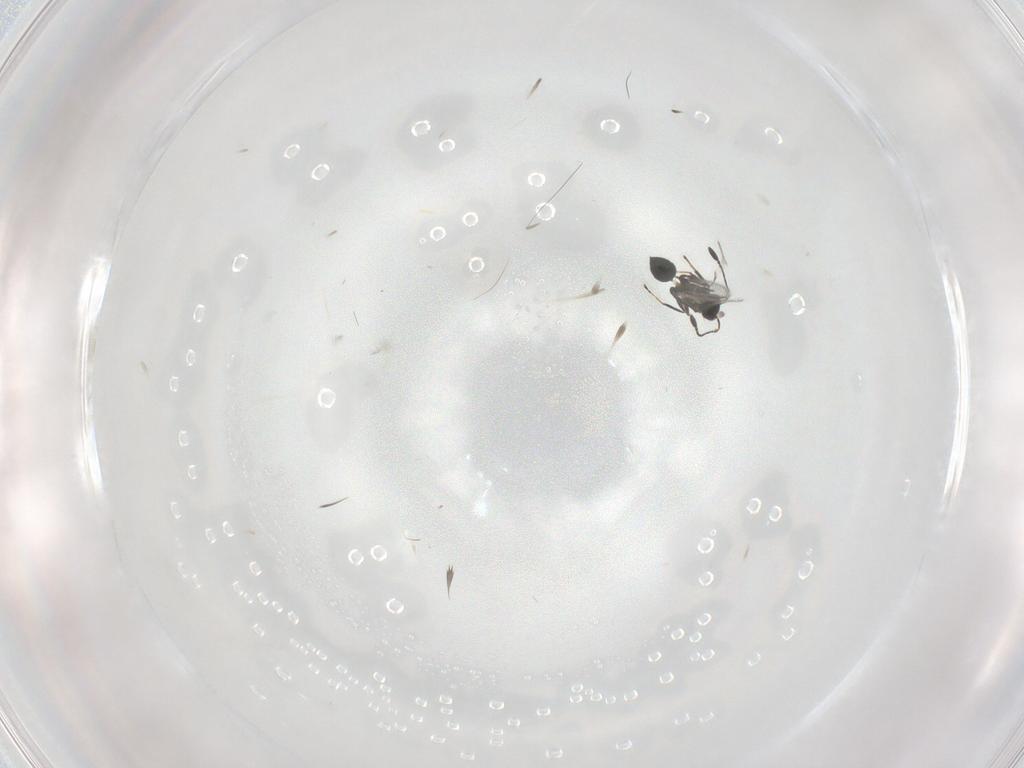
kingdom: Animalia
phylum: Arthropoda
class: Insecta
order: Hymenoptera
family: Mymaridae
